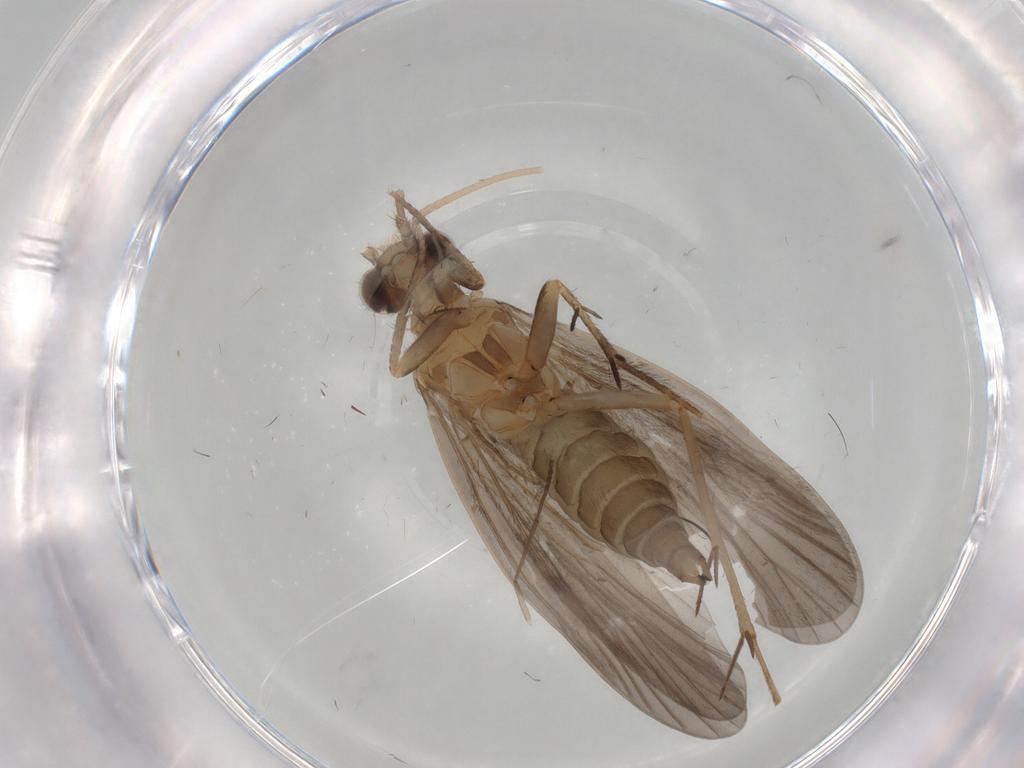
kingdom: Animalia
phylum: Arthropoda
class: Insecta
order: Trichoptera
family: Philopotamidae
